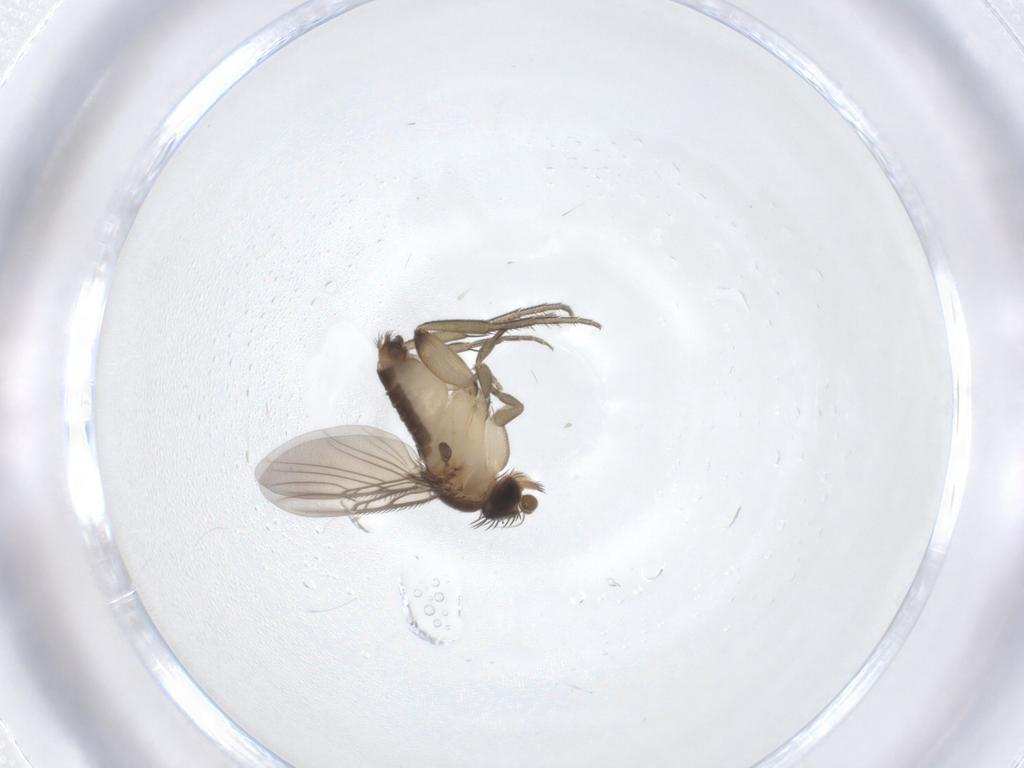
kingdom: Animalia
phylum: Arthropoda
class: Insecta
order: Diptera
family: Phoridae
